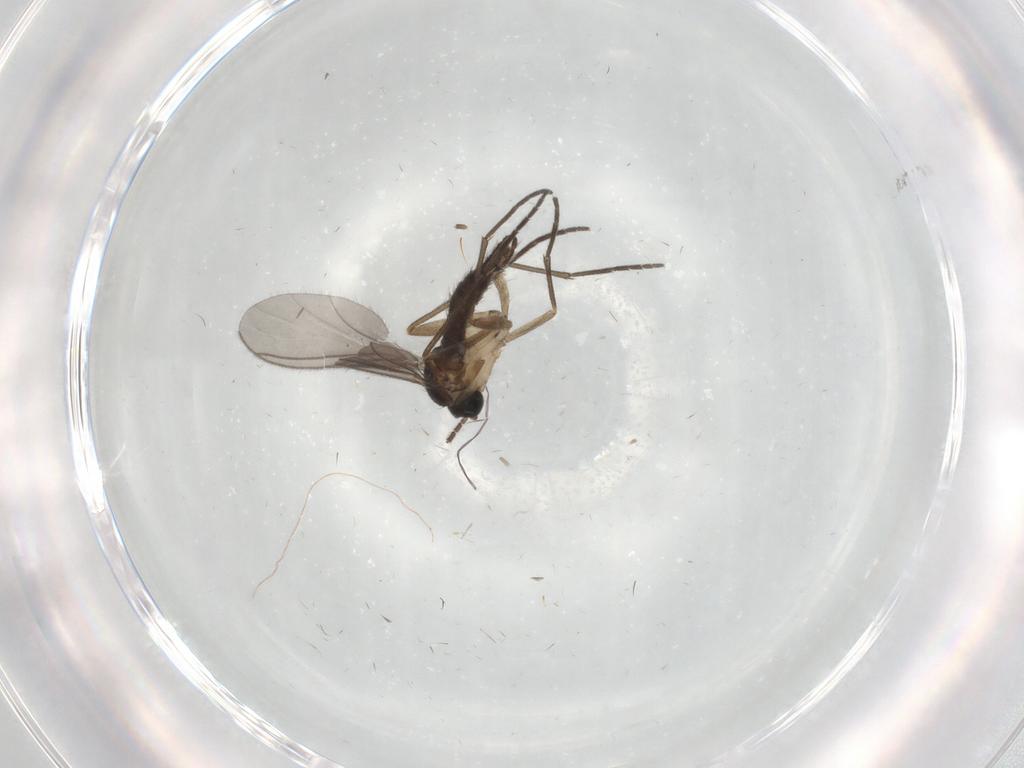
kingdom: Animalia
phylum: Arthropoda
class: Insecta
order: Diptera
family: Sciaridae
